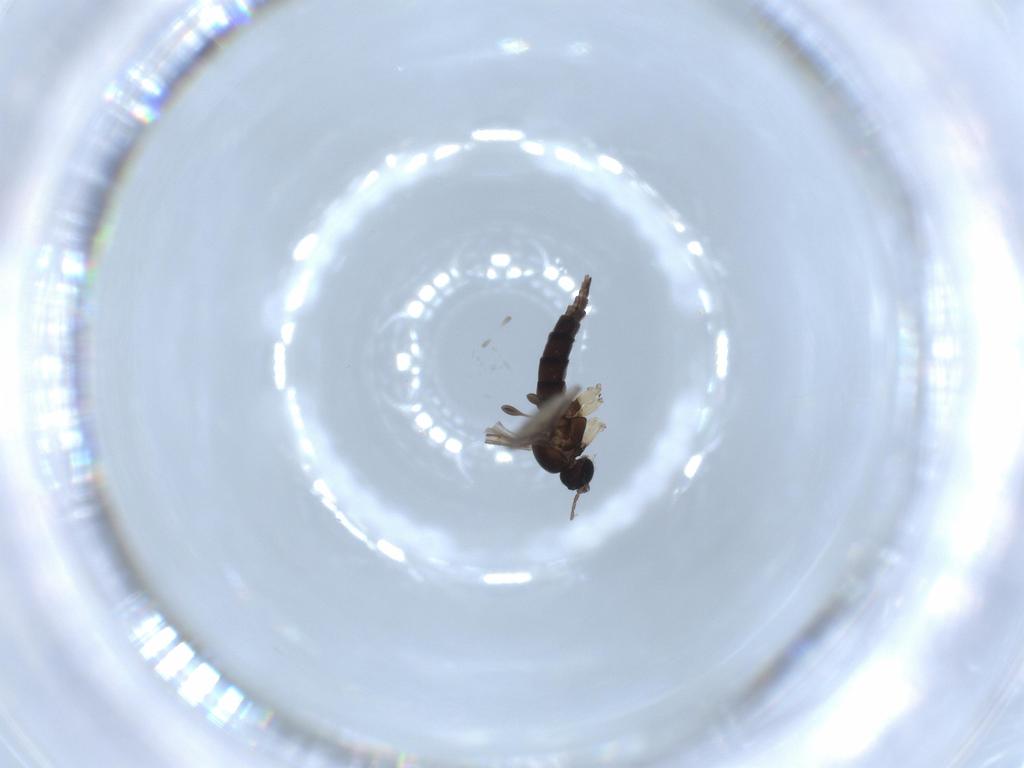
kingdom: Animalia
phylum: Arthropoda
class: Insecta
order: Diptera
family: Sciaridae
